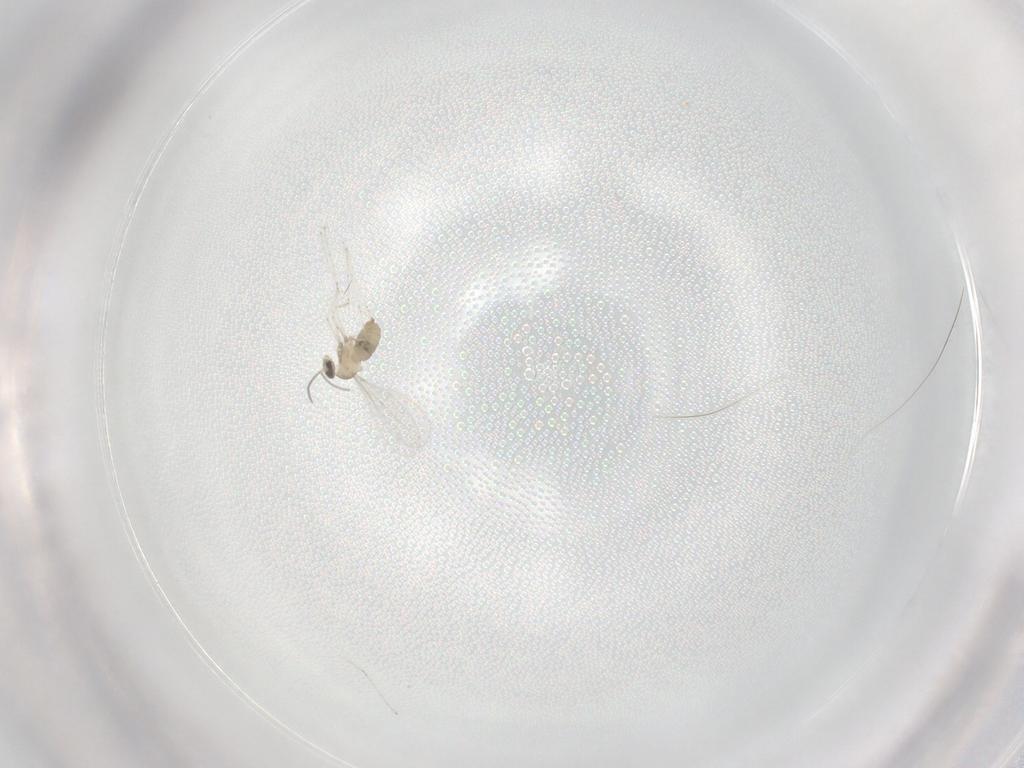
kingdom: Animalia
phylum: Arthropoda
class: Insecta
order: Diptera
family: Cecidomyiidae
